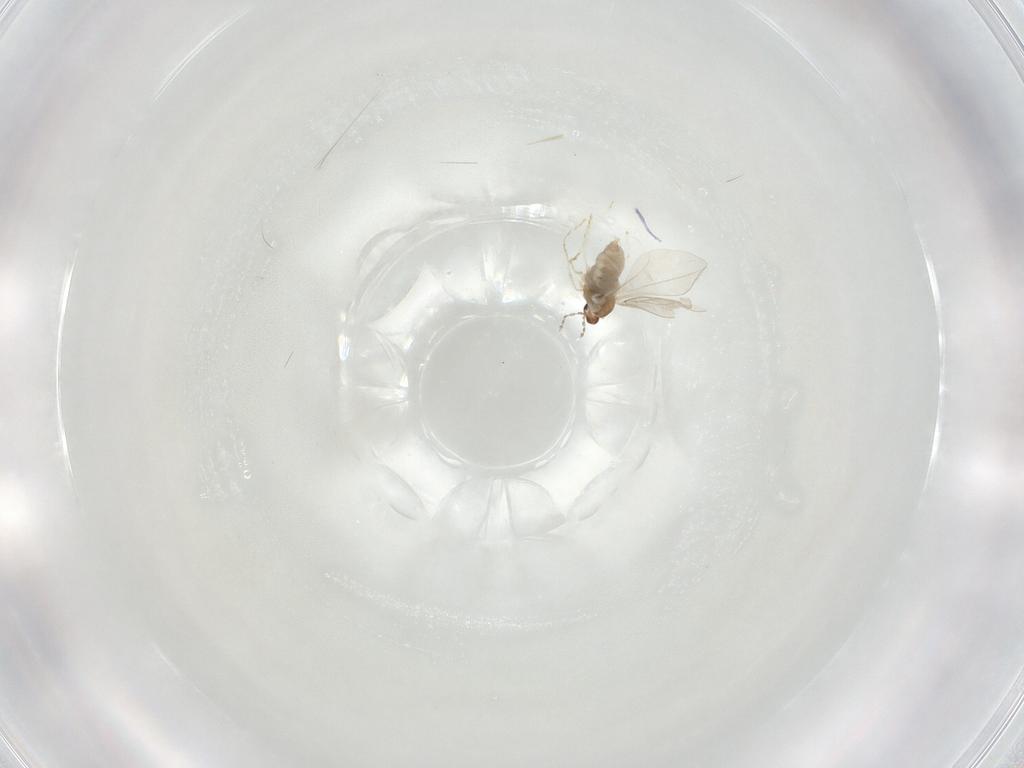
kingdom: Animalia
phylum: Arthropoda
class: Insecta
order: Diptera
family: Cecidomyiidae
